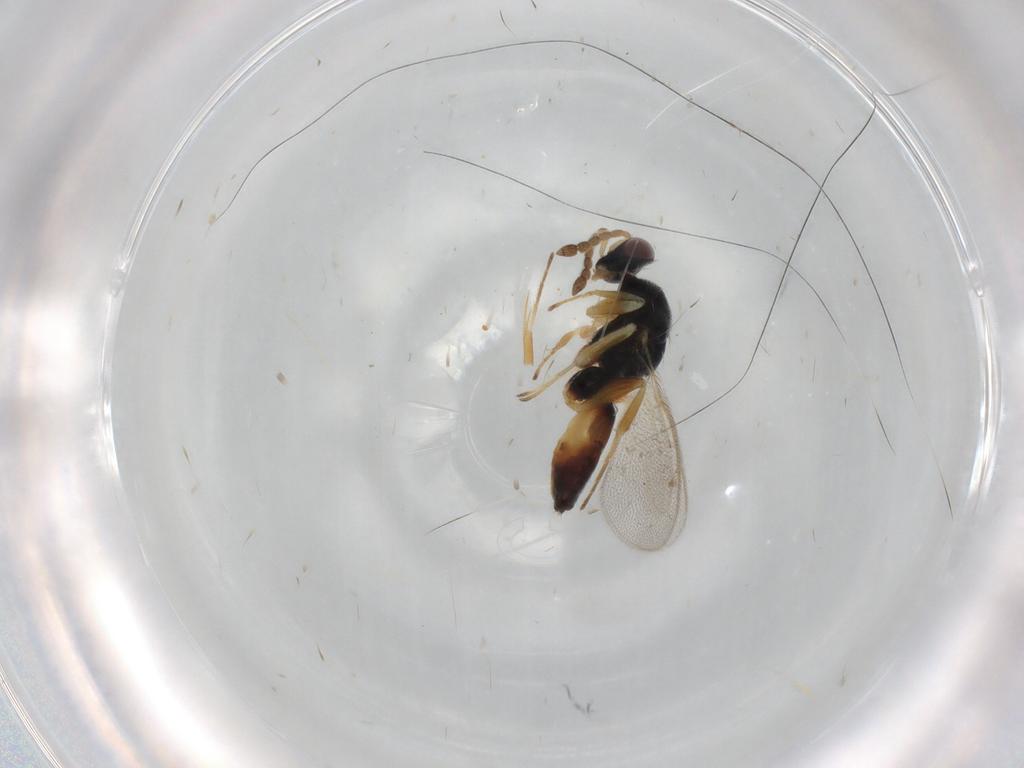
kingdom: Animalia
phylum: Arthropoda
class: Insecta
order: Hymenoptera
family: Eulophidae
